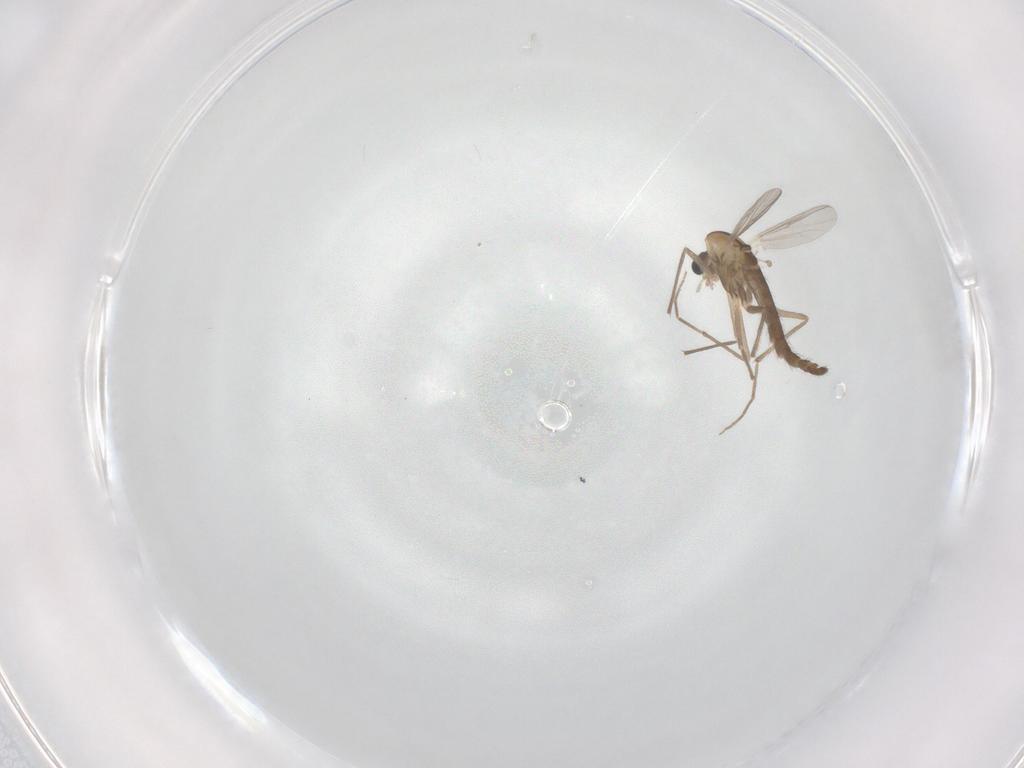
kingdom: Animalia
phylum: Arthropoda
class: Insecta
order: Diptera
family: Chironomidae
